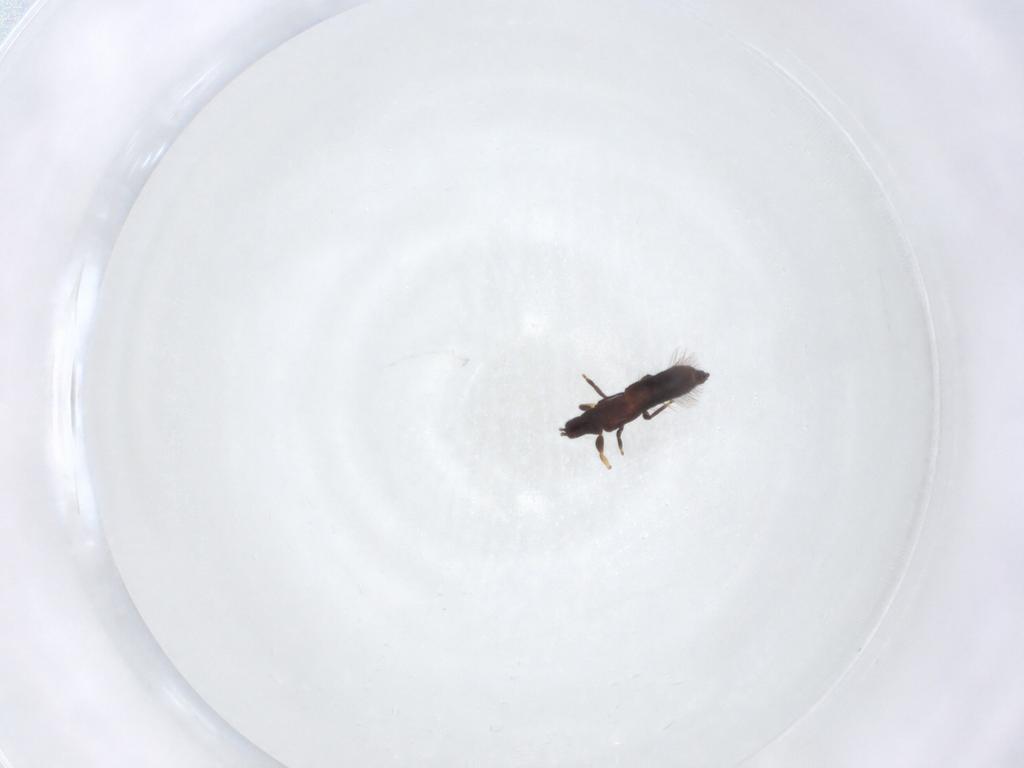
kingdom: Animalia
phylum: Arthropoda
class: Insecta
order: Thysanoptera
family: Phlaeothripidae
